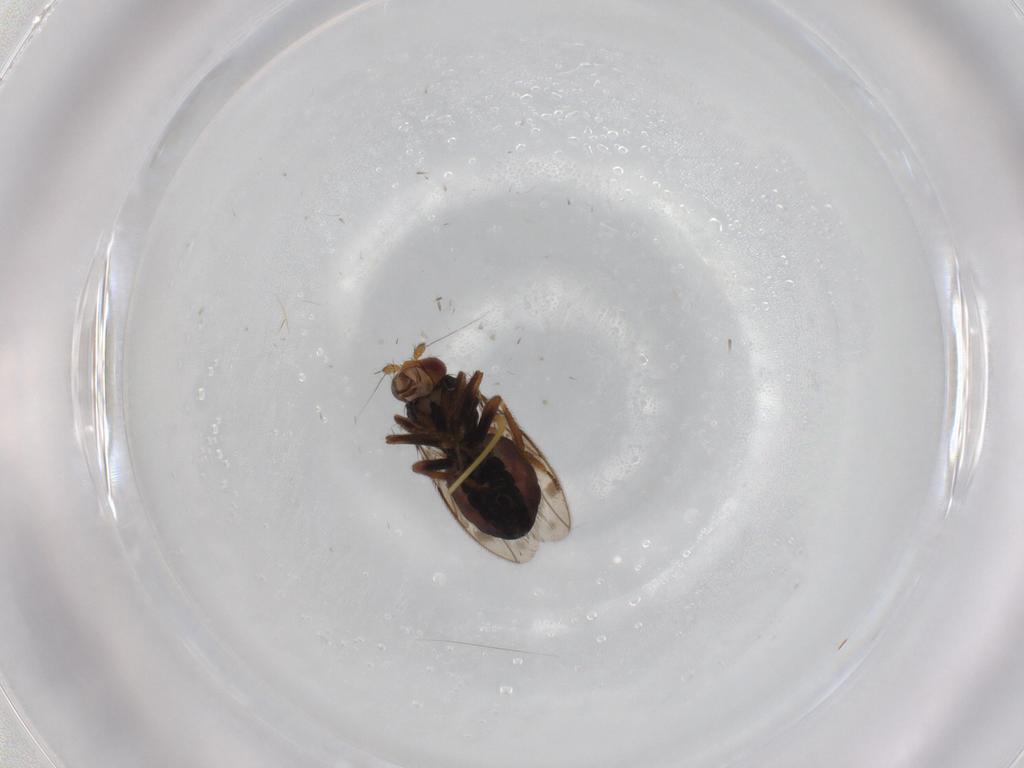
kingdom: Animalia
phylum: Arthropoda
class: Insecta
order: Diptera
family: Sphaeroceridae
